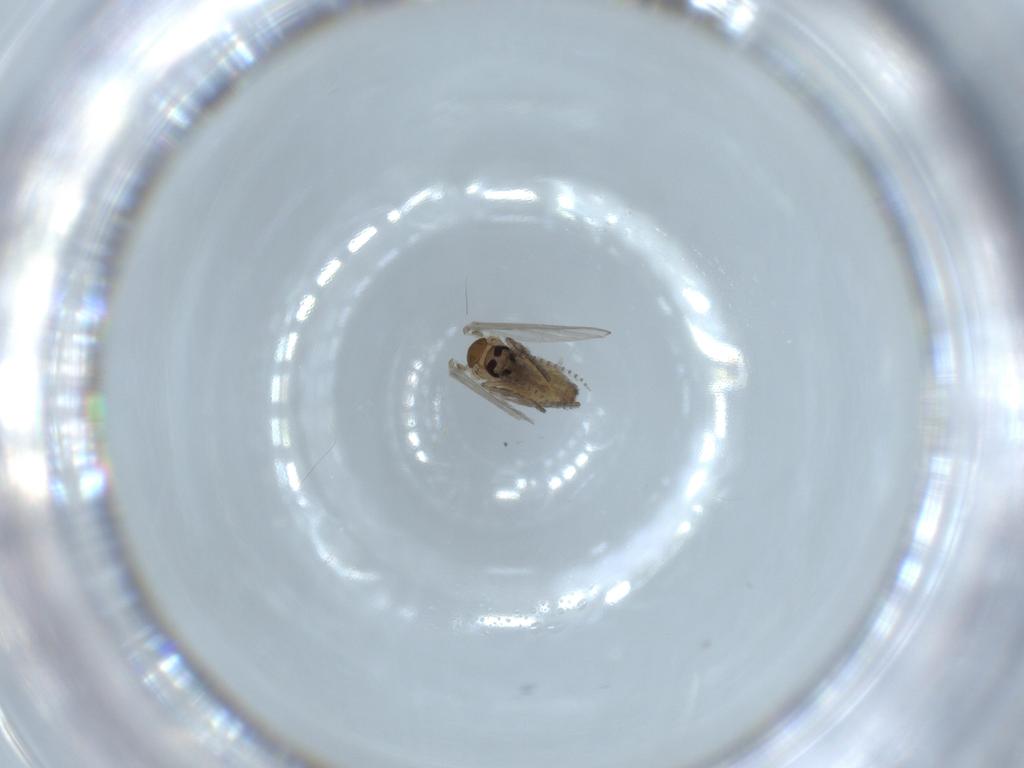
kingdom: Animalia
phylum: Arthropoda
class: Insecta
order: Diptera
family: Psychodidae
